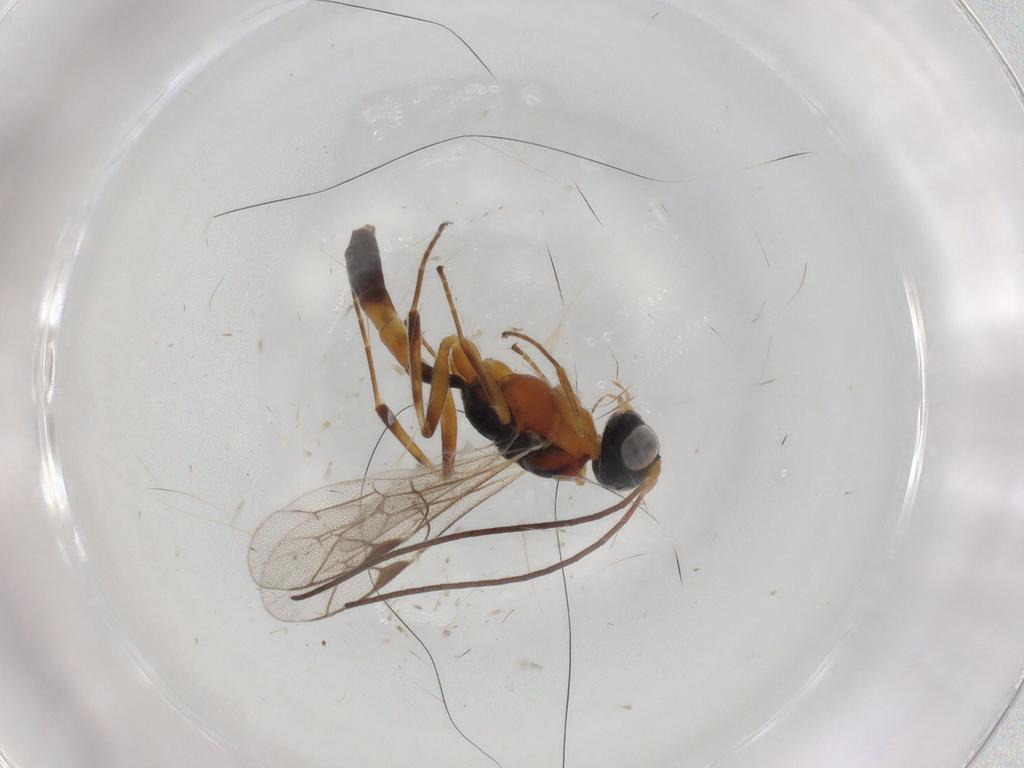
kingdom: Animalia
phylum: Arthropoda
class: Insecta
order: Hymenoptera
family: Ichneumonidae
